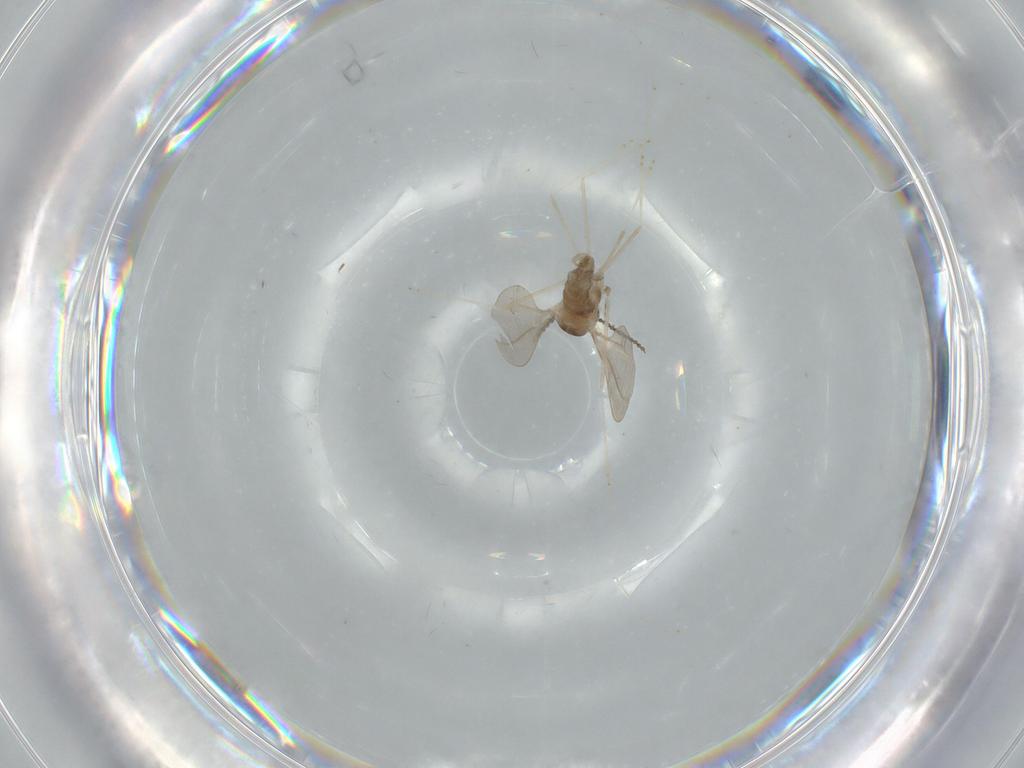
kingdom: Animalia
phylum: Arthropoda
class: Insecta
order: Diptera
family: Cecidomyiidae
